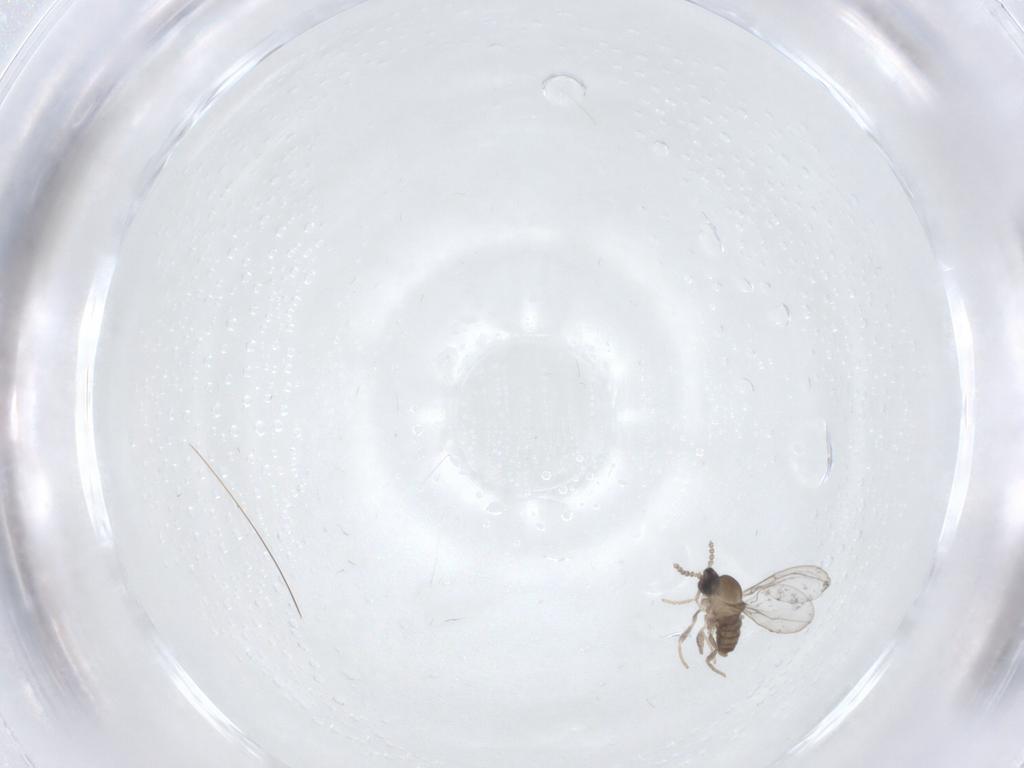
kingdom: Animalia
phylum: Arthropoda
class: Insecta
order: Diptera
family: Cecidomyiidae
